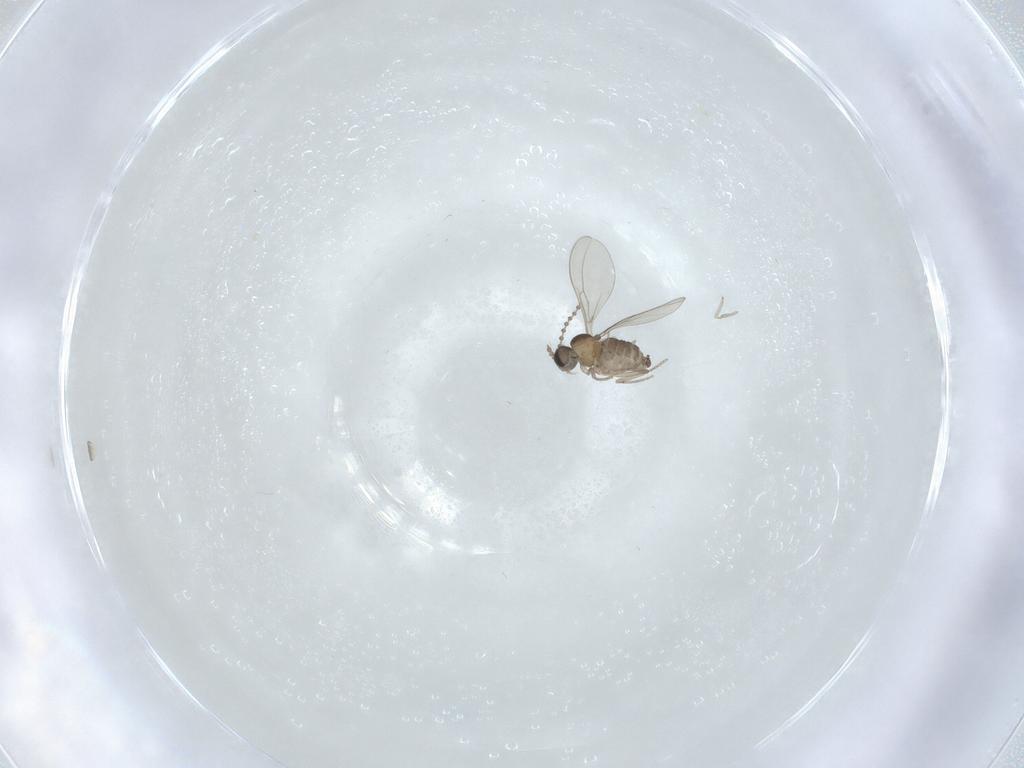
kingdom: Animalia
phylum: Arthropoda
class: Insecta
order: Diptera
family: Cecidomyiidae
